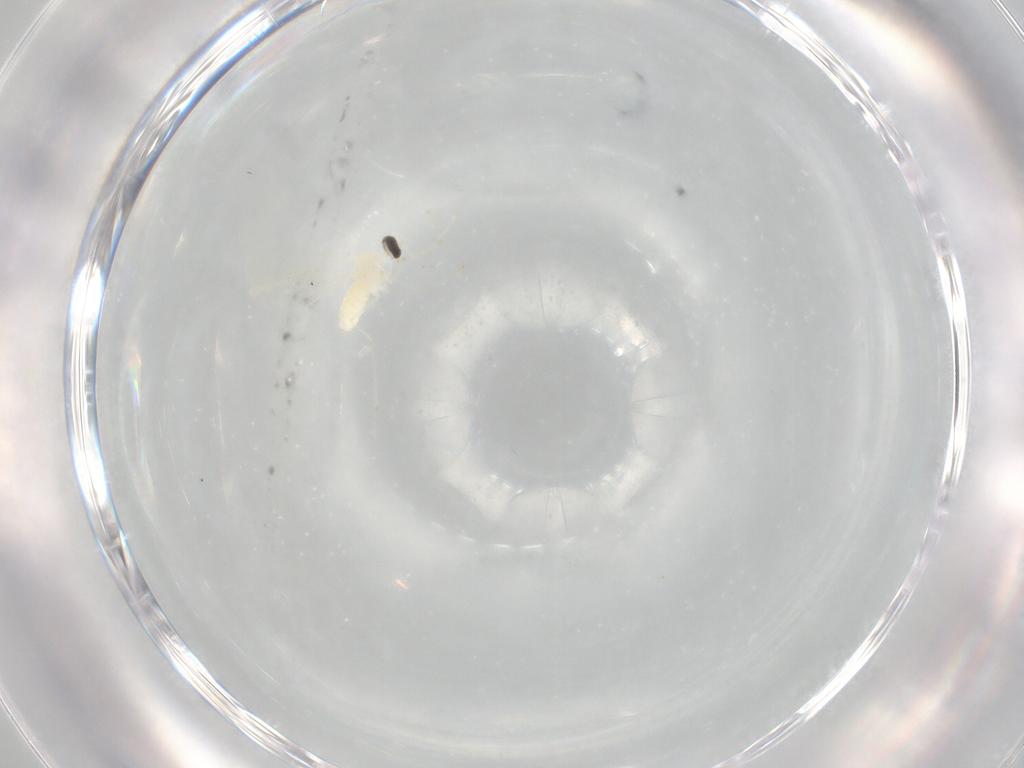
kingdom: Animalia
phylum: Arthropoda
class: Insecta
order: Diptera
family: Cecidomyiidae
